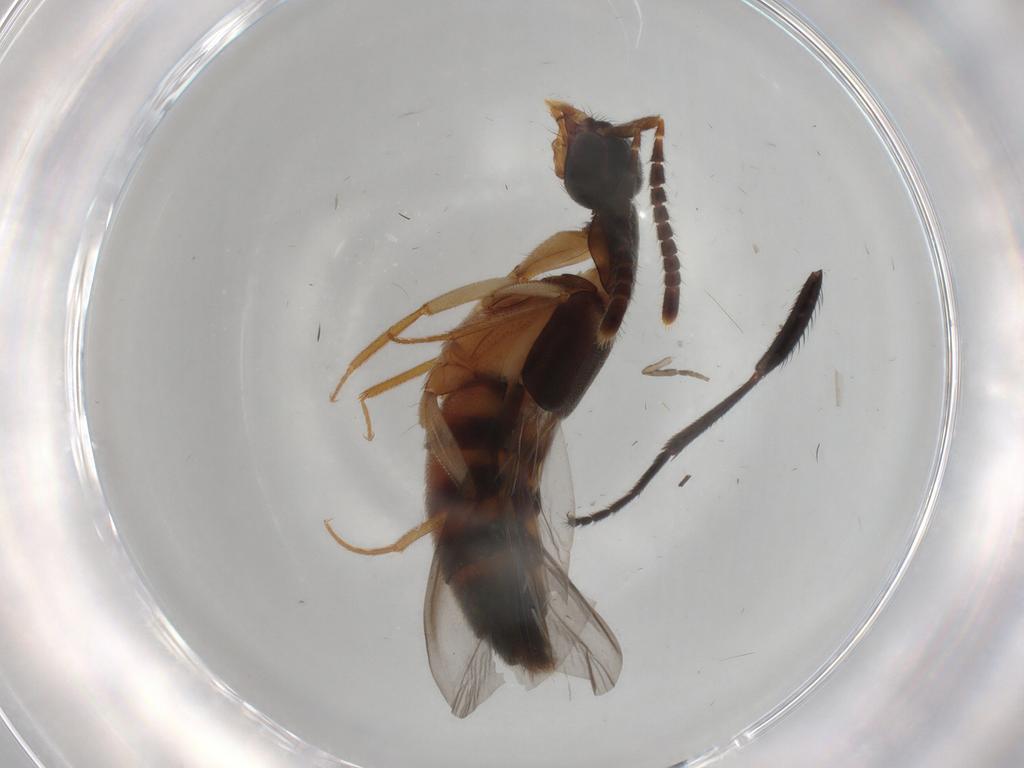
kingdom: Animalia
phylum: Arthropoda
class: Insecta
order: Coleoptera
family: Staphylinidae
